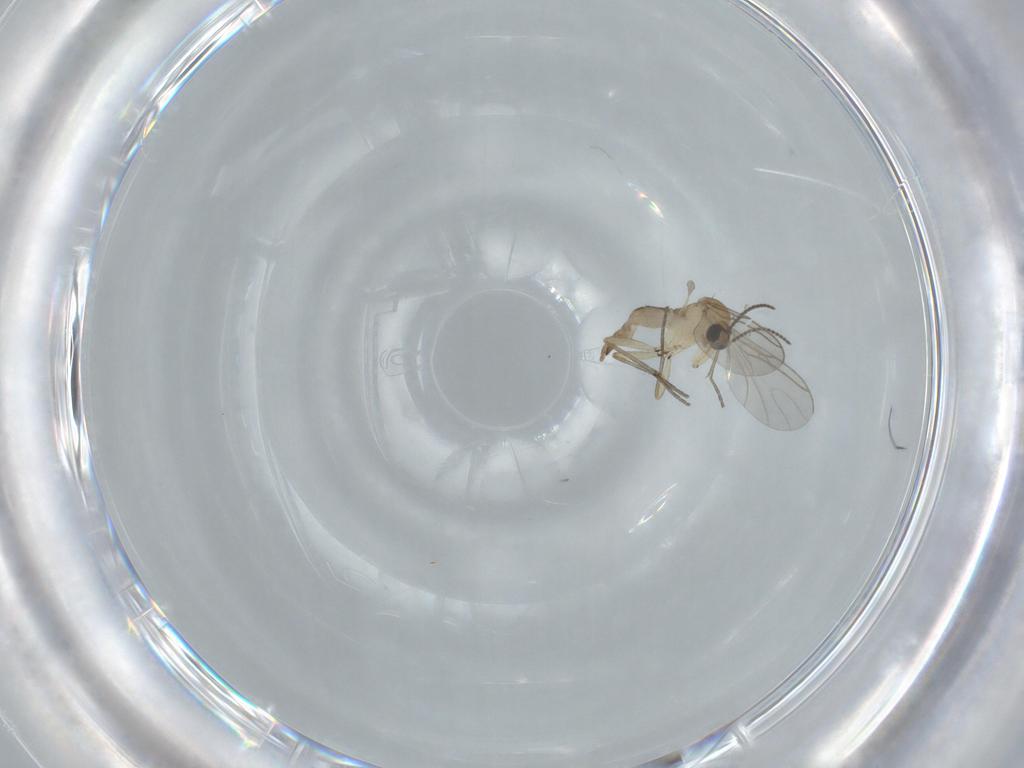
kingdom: Animalia
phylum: Arthropoda
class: Insecta
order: Diptera
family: Sciaridae
